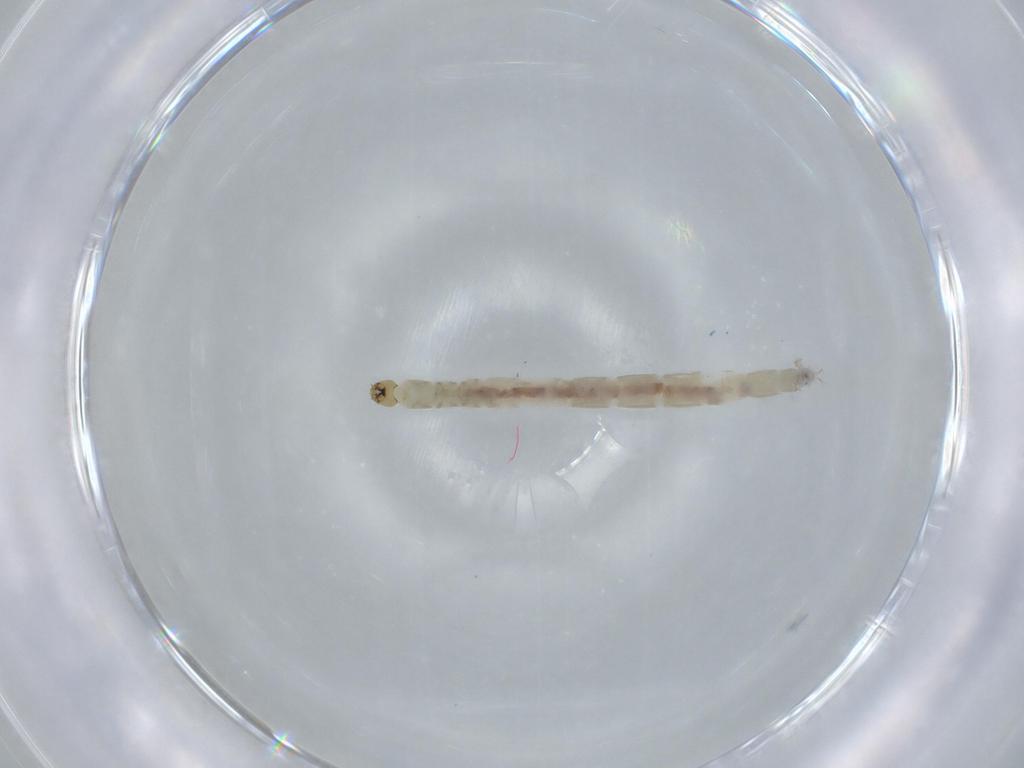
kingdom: Animalia
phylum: Arthropoda
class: Insecta
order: Diptera
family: Chironomidae
